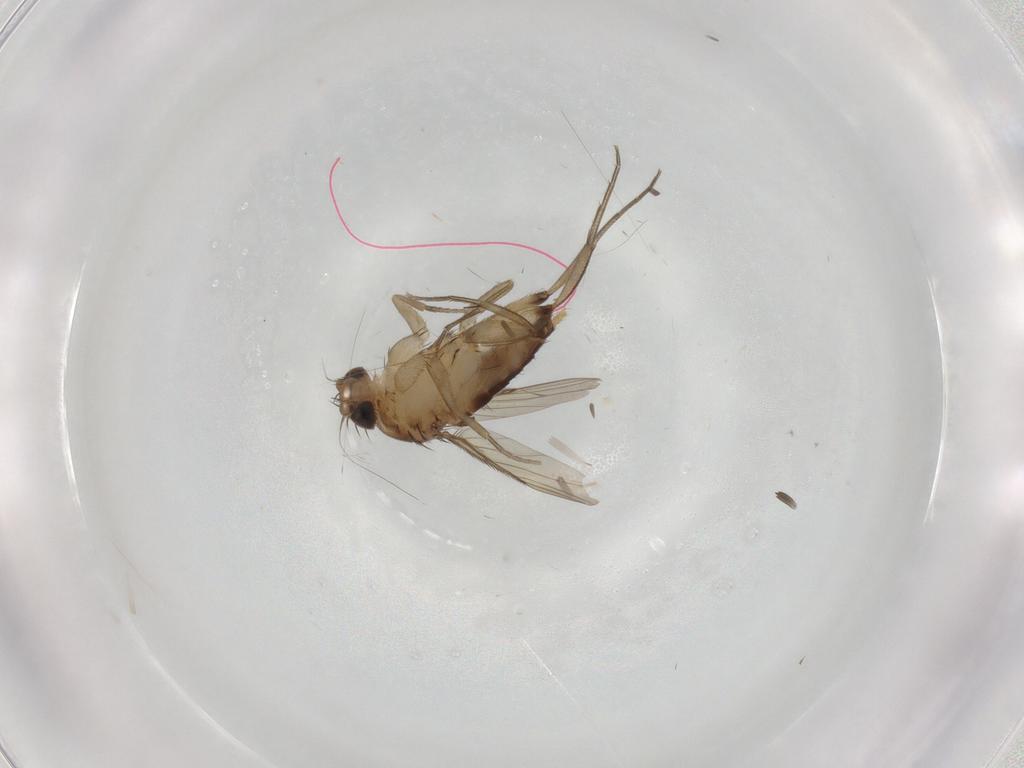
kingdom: Animalia
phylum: Arthropoda
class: Insecta
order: Diptera
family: Phoridae
